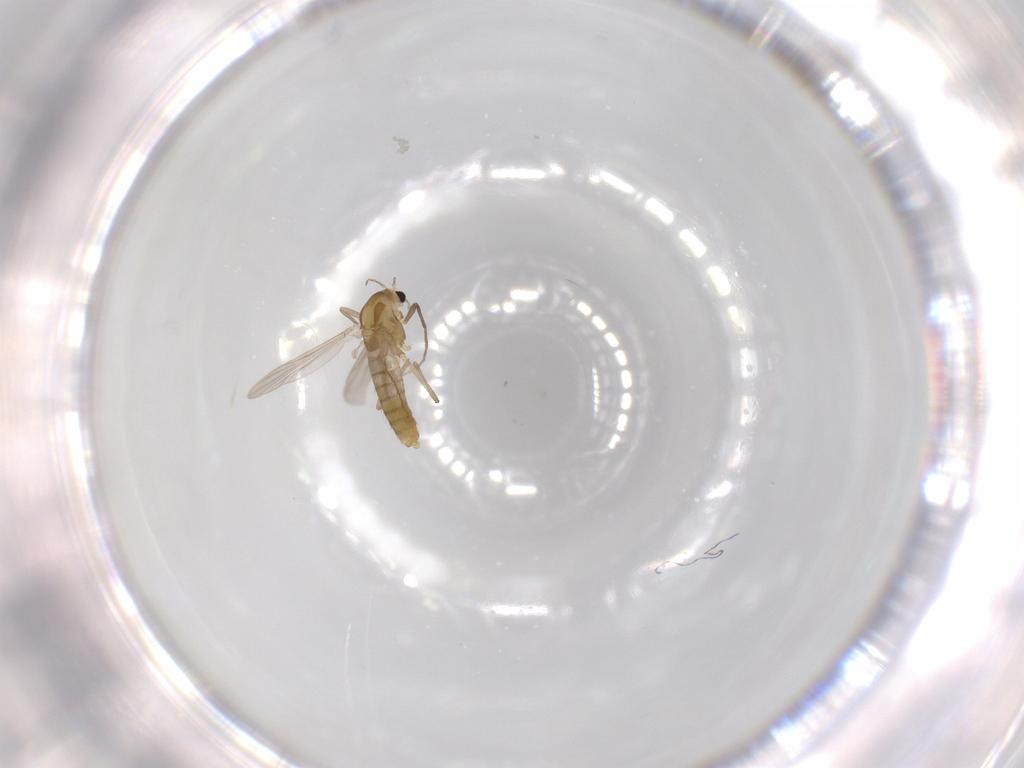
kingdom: Animalia
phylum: Arthropoda
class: Insecta
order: Diptera
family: Chironomidae
